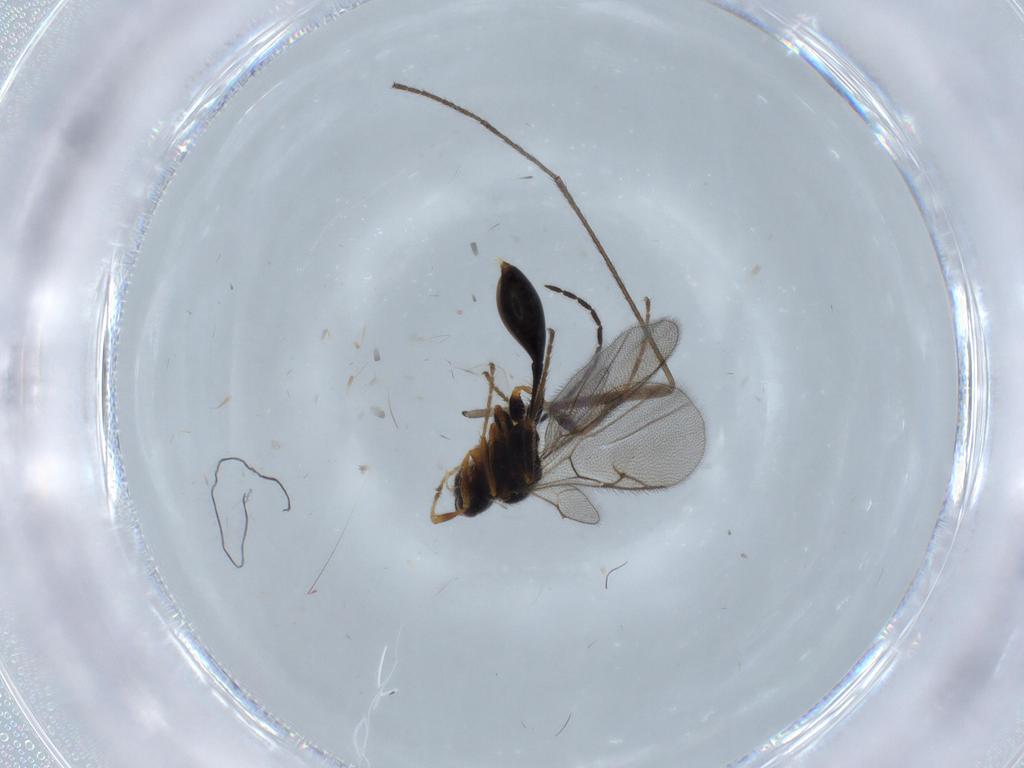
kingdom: Animalia
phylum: Arthropoda
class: Insecta
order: Hymenoptera
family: Diapriidae
